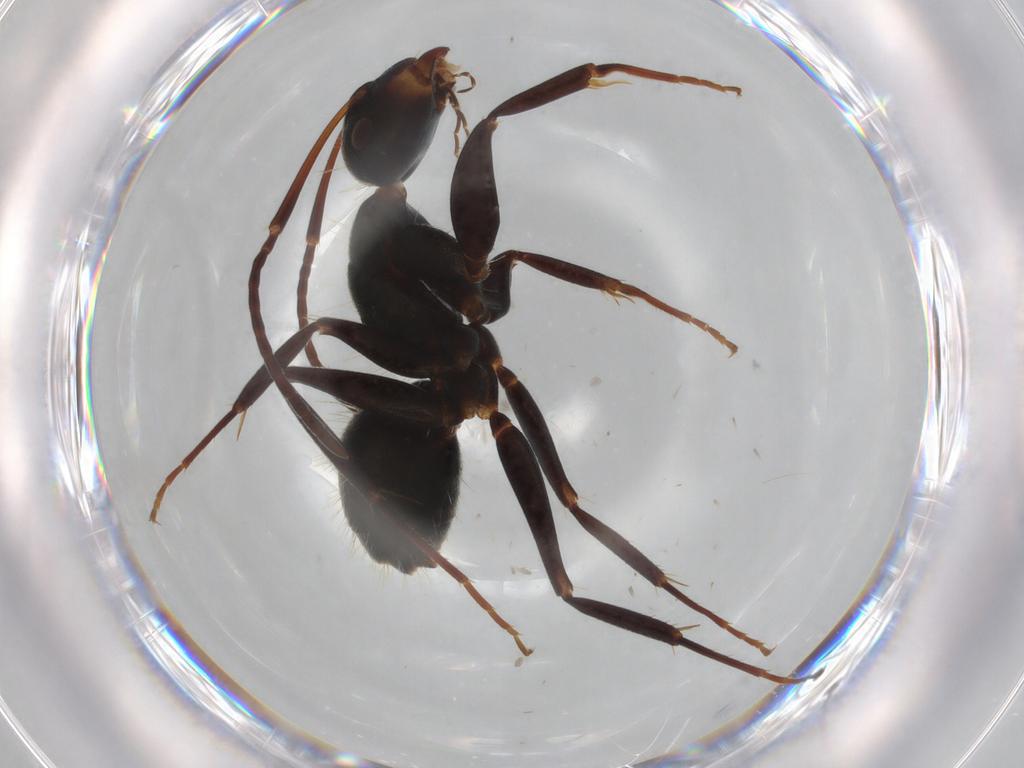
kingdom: Animalia
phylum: Arthropoda
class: Insecta
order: Hymenoptera
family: Formicidae
